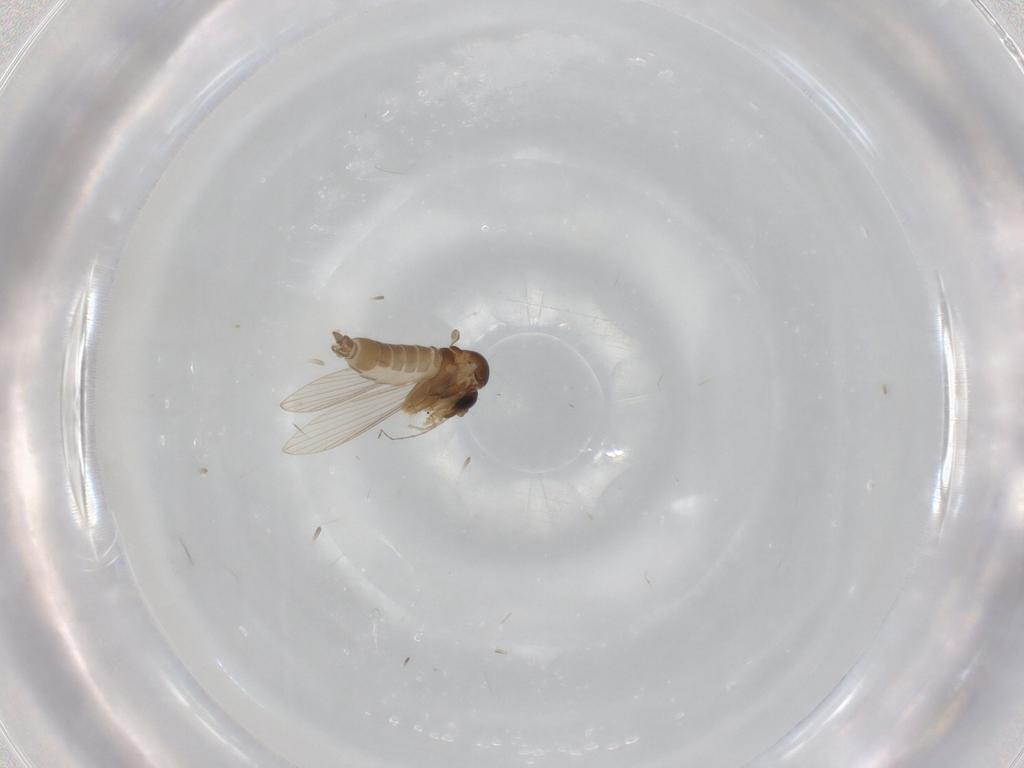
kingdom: Animalia
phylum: Arthropoda
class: Insecta
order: Diptera
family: Psychodidae
